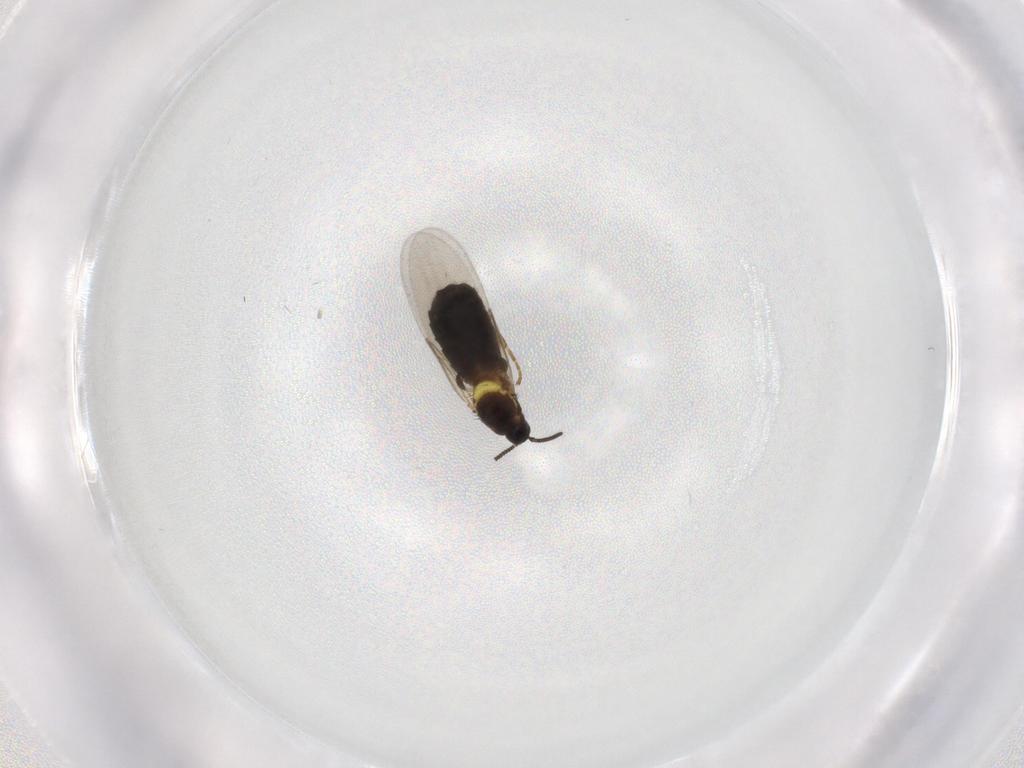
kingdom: Animalia
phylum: Arthropoda
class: Insecta
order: Diptera
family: Scatopsidae
